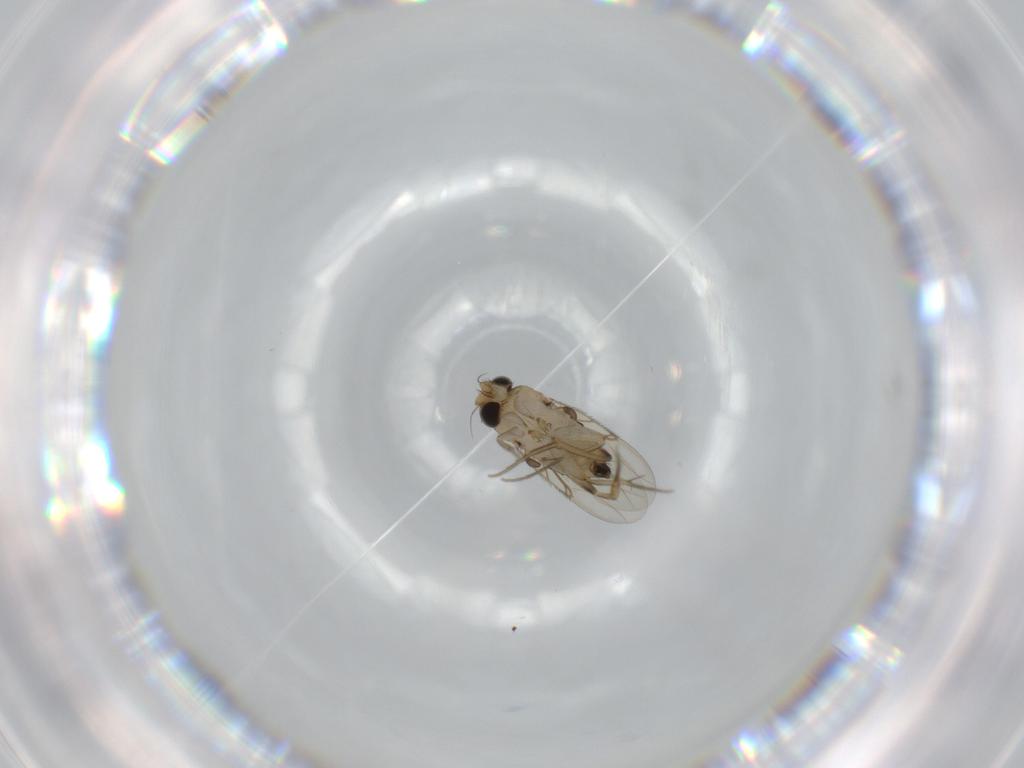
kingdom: Animalia
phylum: Arthropoda
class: Insecta
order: Diptera
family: Phoridae
